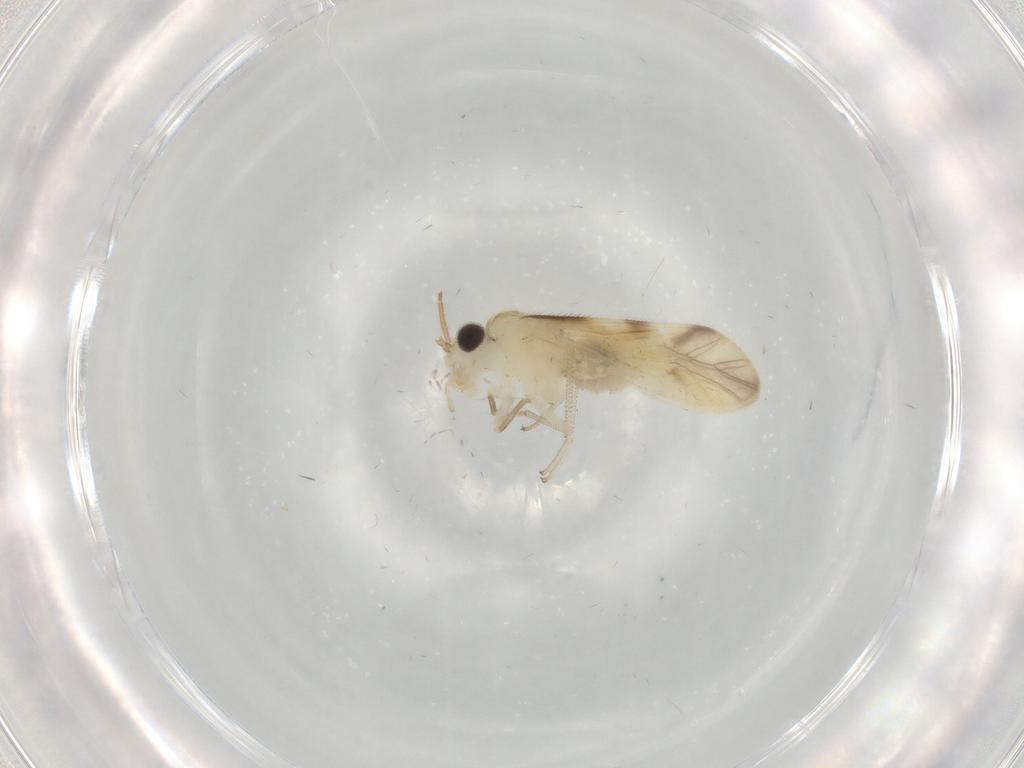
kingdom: Animalia
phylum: Arthropoda
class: Insecta
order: Psocodea
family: Caeciliusidae
